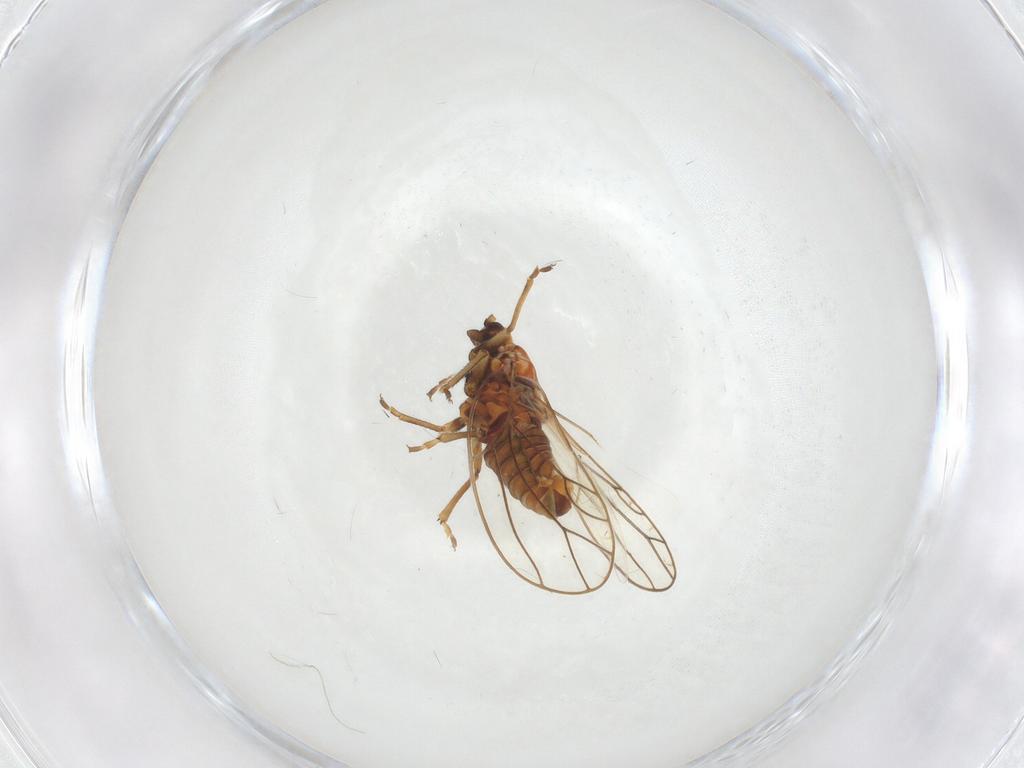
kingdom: Animalia
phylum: Arthropoda
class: Insecta
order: Hemiptera
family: Triozidae
